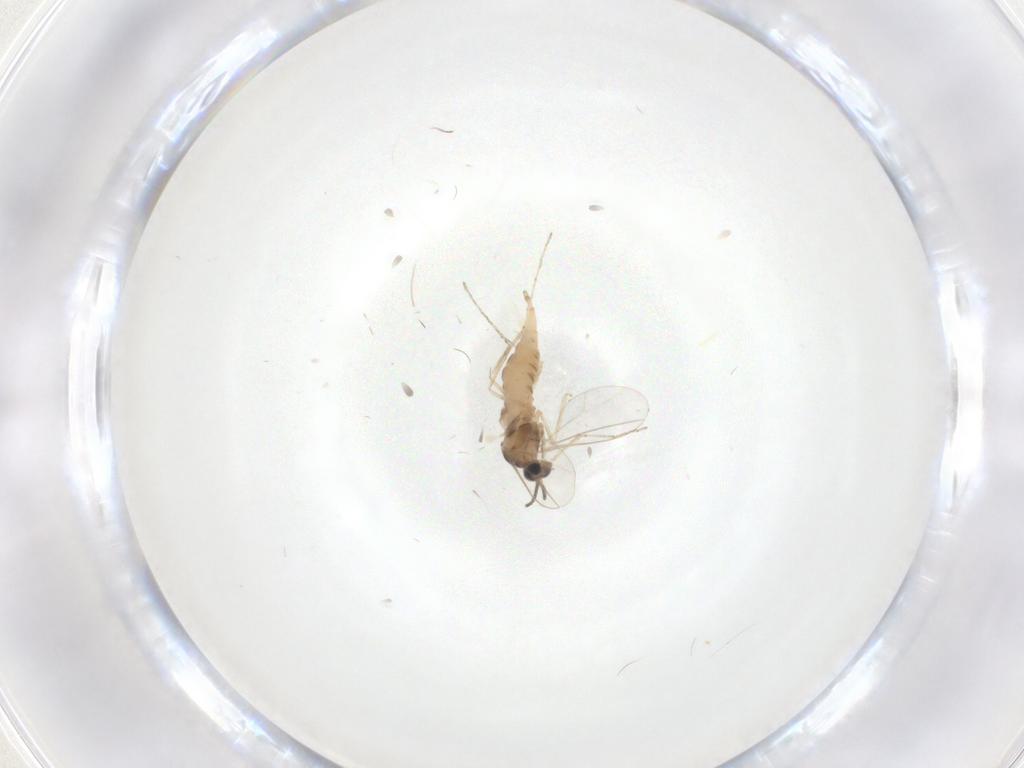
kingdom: Animalia
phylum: Arthropoda
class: Insecta
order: Diptera
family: Cecidomyiidae
